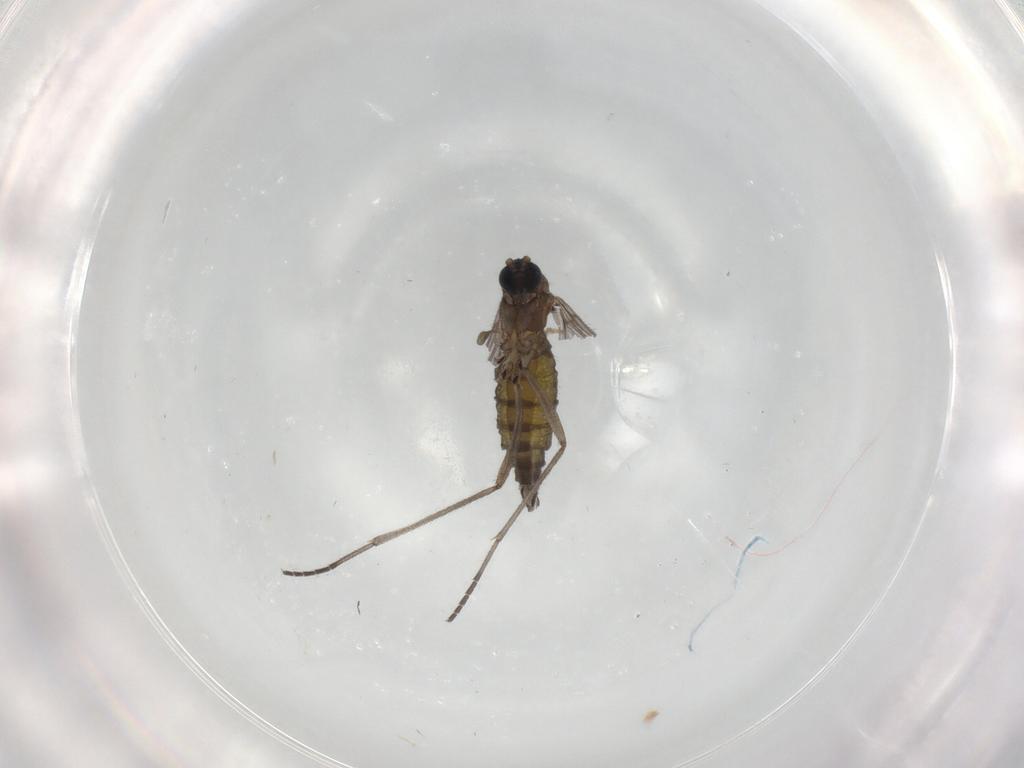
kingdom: Animalia
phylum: Arthropoda
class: Insecta
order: Diptera
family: Sciaridae
